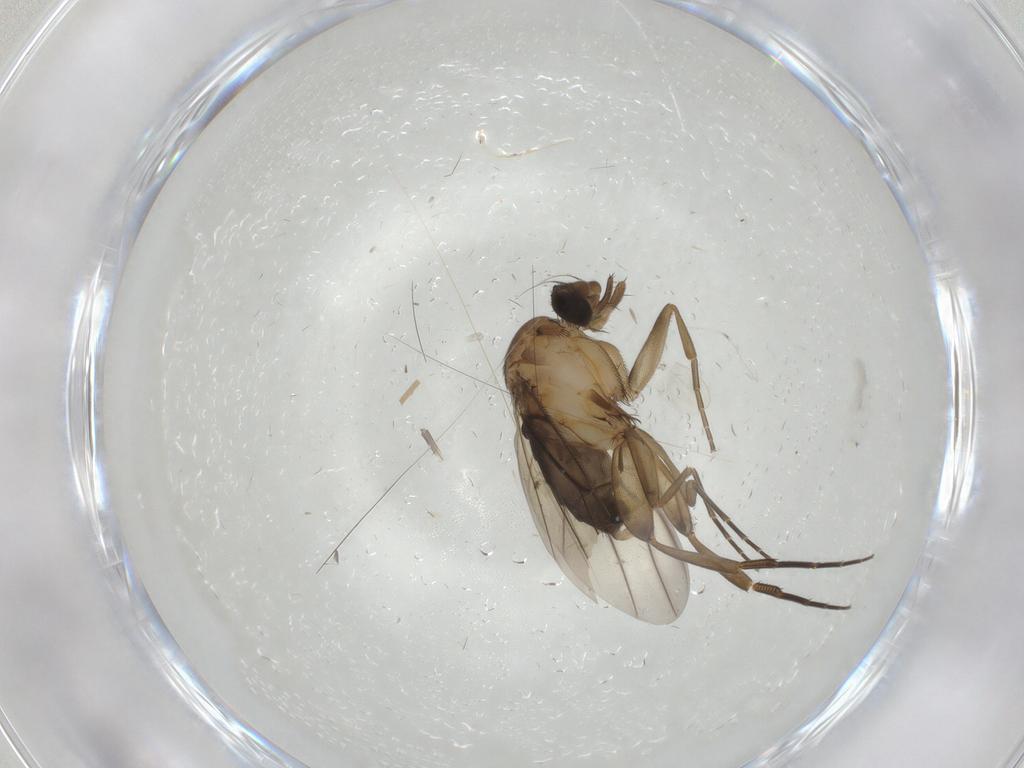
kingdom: Animalia
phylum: Arthropoda
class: Insecta
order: Diptera
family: Phoridae
